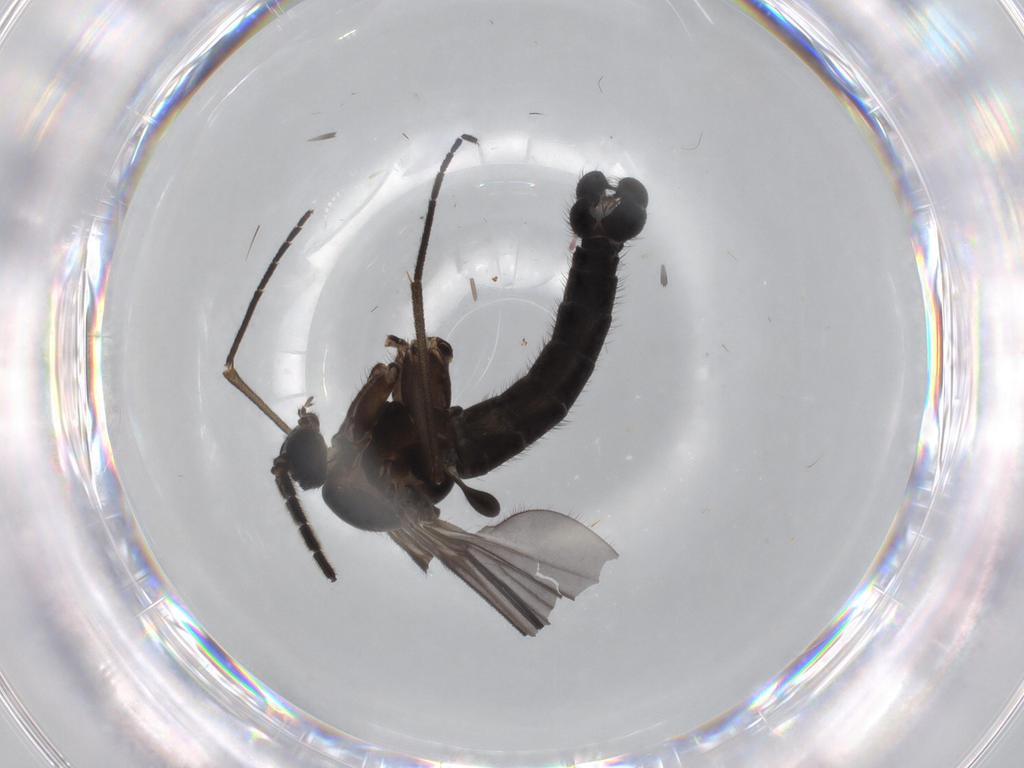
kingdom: Animalia
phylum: Arthropoda
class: Insecta
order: Diptera
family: Sciaridae
